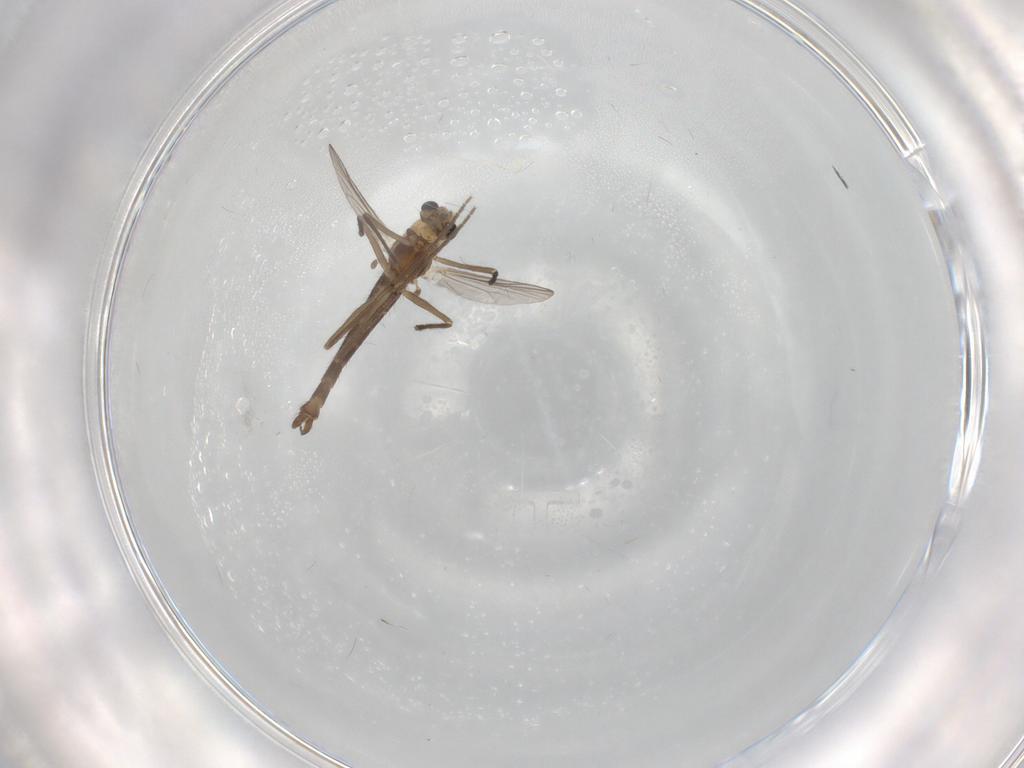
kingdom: Animalia
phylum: Arthropoda
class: Insecta
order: Diptera
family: Chironomidae
